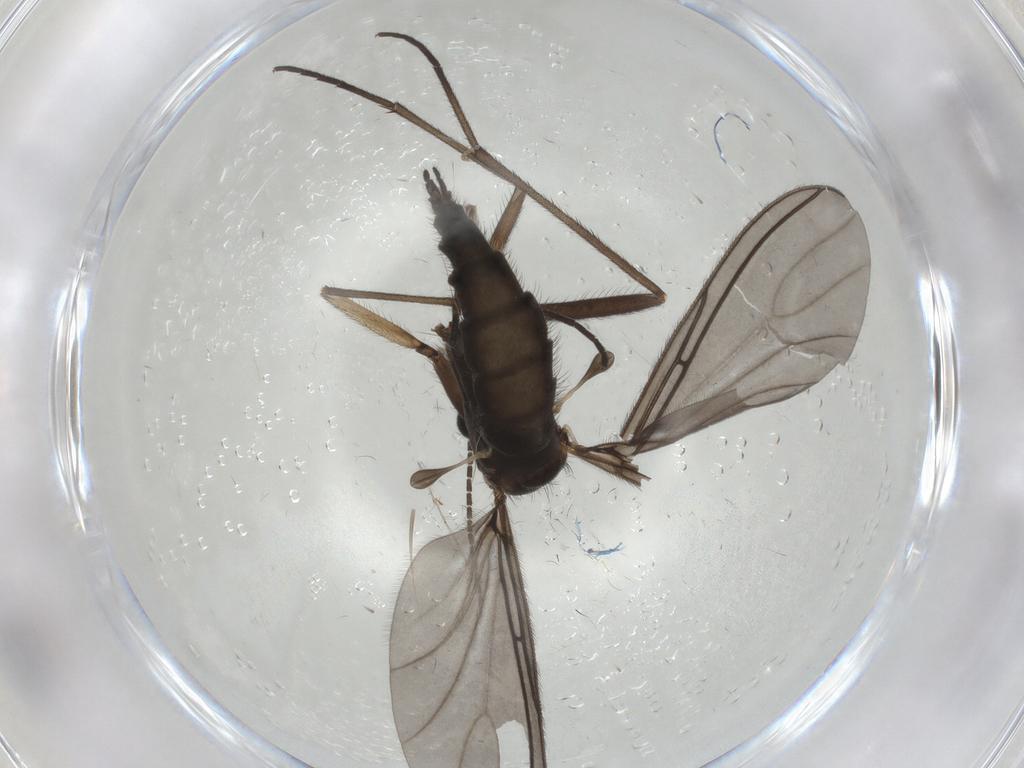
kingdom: Animalia
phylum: Arthropoda
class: Insecta
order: Diptera
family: Sciaridae
